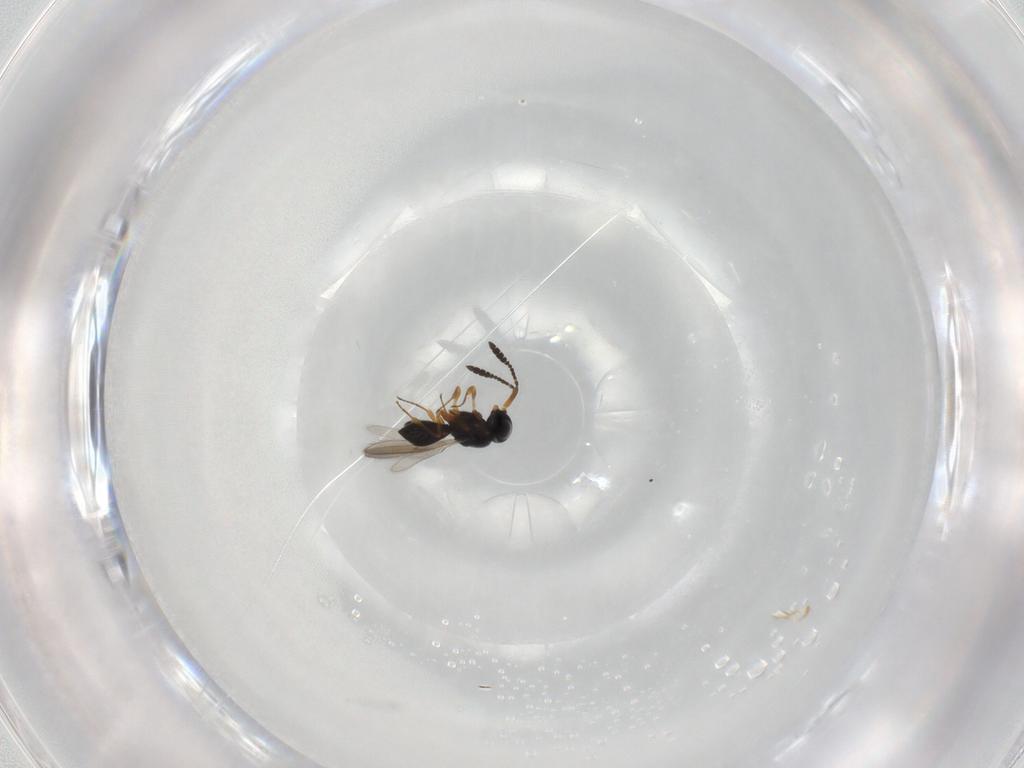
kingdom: Animalia
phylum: Arthropoda
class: Insecta
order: Hymenoptera
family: Scelionidae
